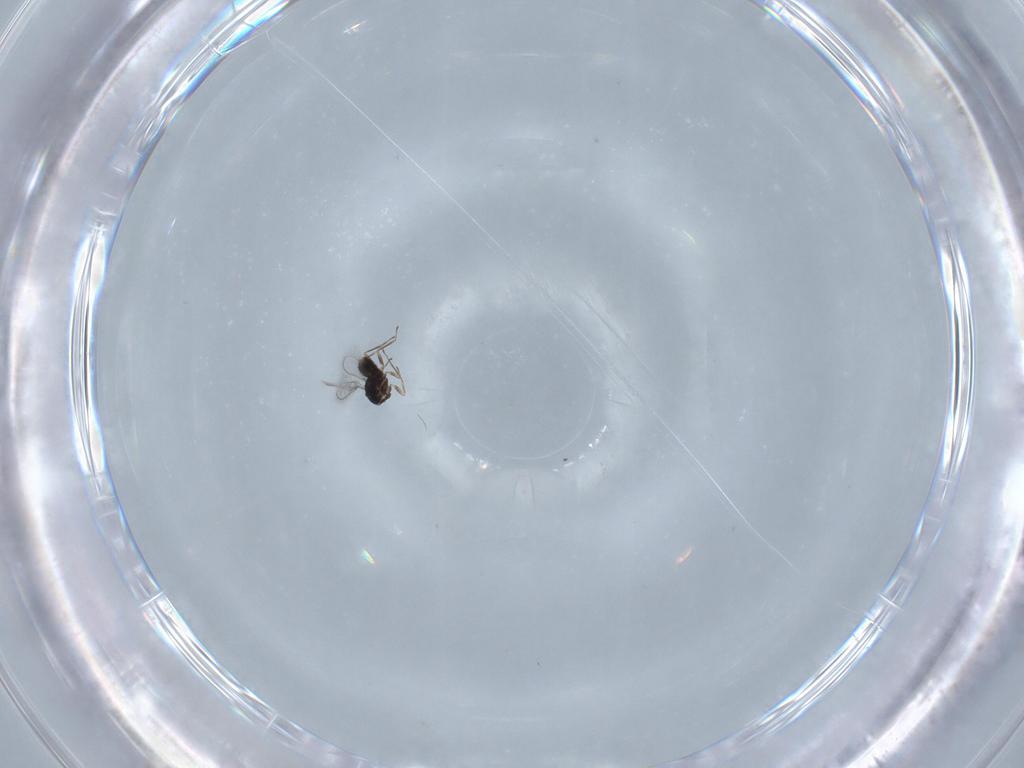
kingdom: Animalia
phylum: Arthropoda
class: Insecta
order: Hymenoptera
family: Mymaridae
